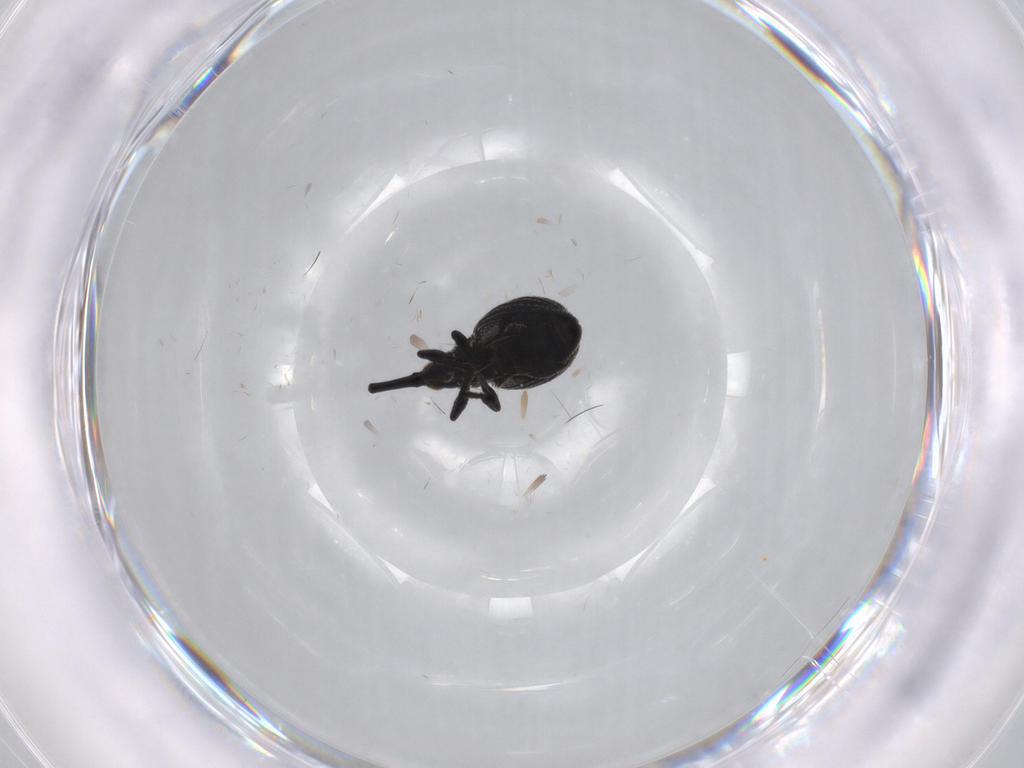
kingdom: Animalia
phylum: Arthropoda
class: Insecta
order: Coleoptera
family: Brentidae
